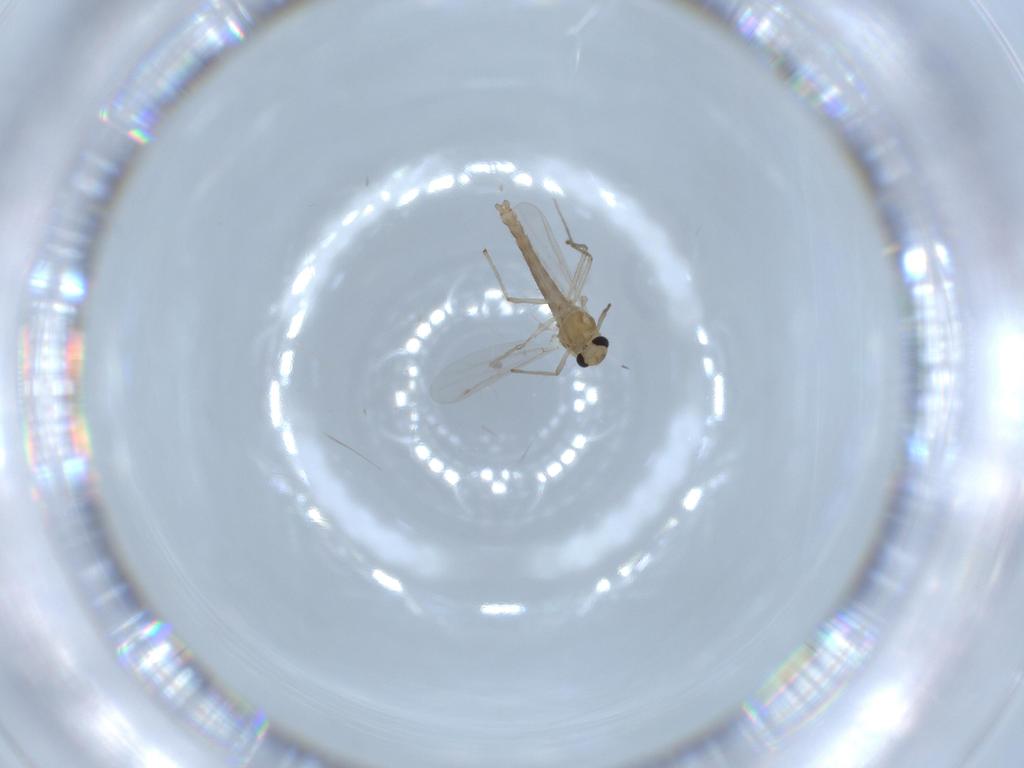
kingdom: Animalia
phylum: Arthropoda
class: Insecta
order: Diptera
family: Chironomidae
